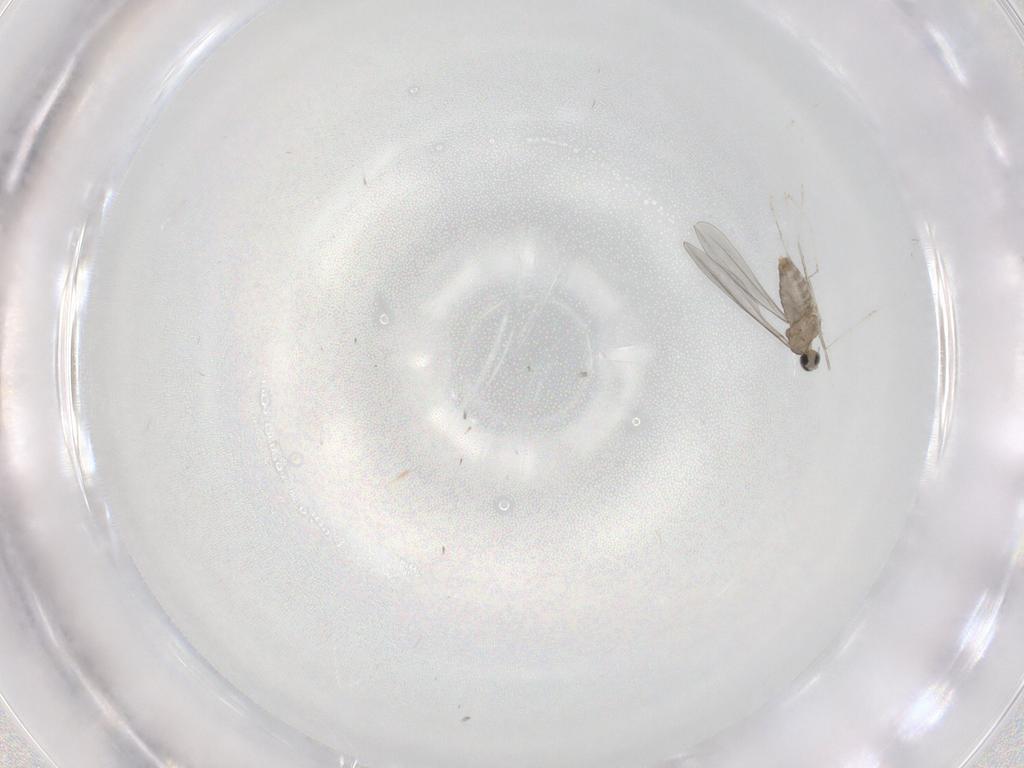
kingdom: Animalia
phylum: Arthropoda
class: Insecta
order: Diptera
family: Cecidomyiidae
